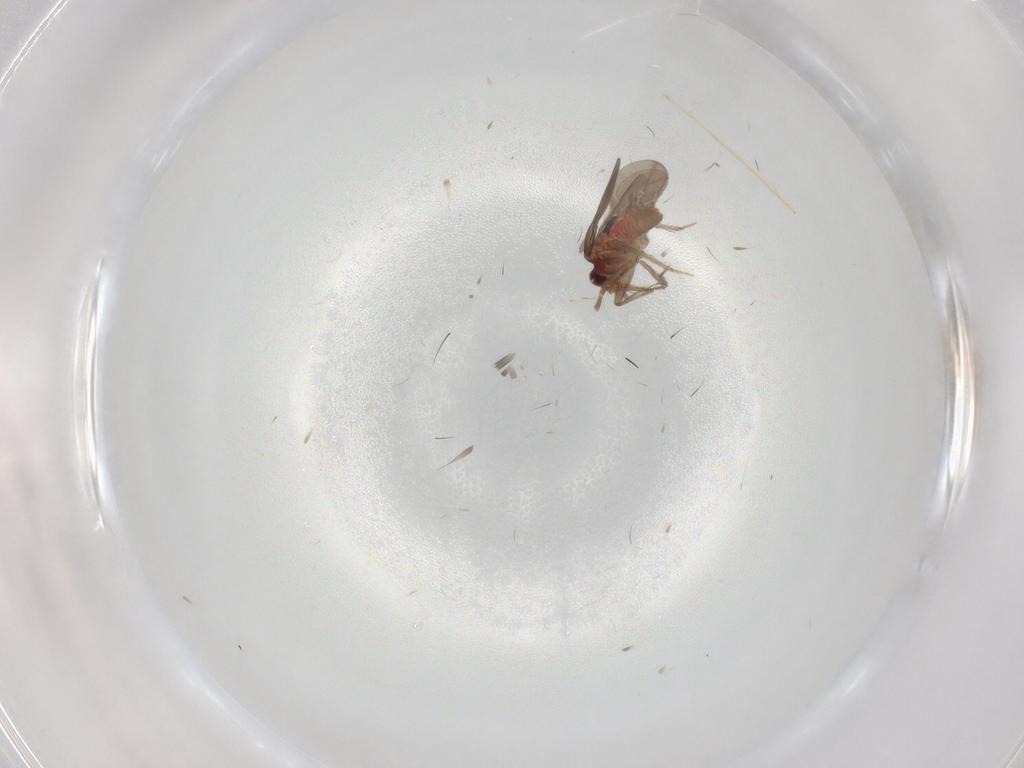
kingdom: Animalia
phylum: Arthropoda
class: Insecta
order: Hemiptera
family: Ceratocombidae
